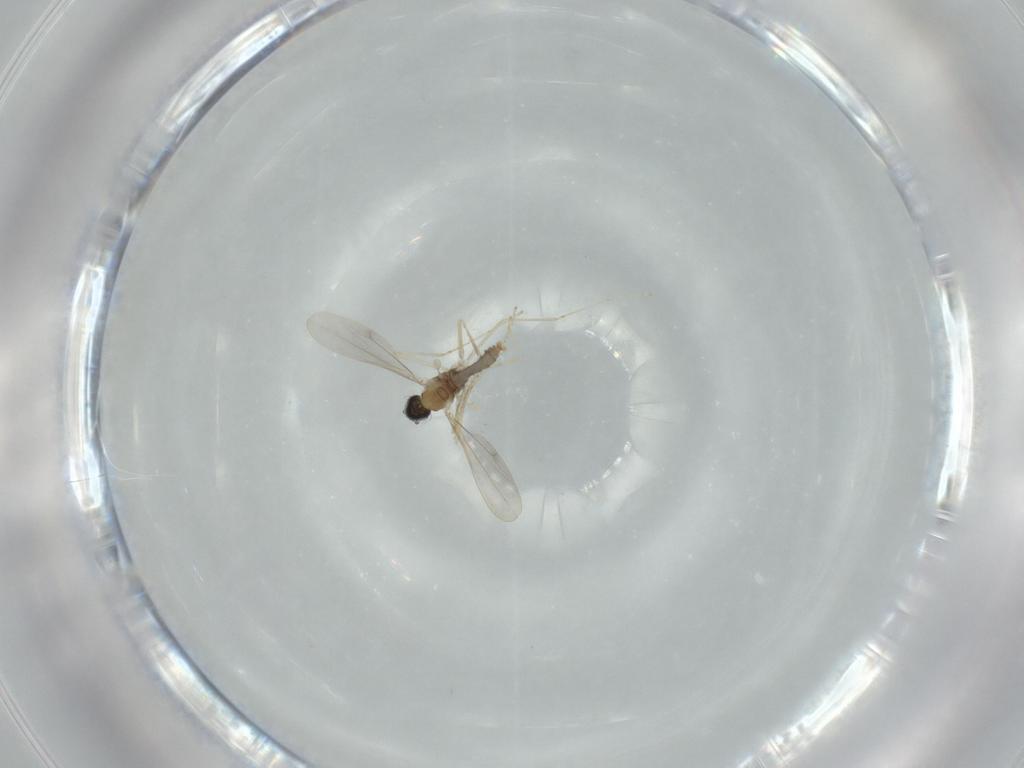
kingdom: Animalia
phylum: Arthropoda
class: Insecta
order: Diptera
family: Cecidomyiidae
